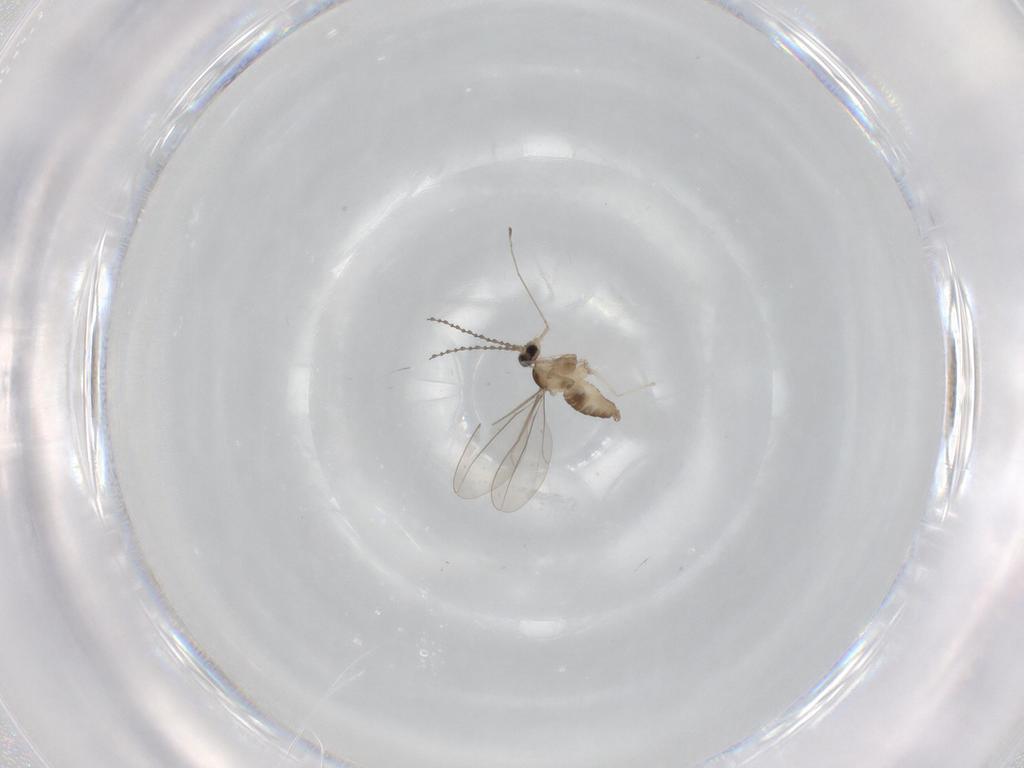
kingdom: Animalia
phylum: Arthropoda
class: Insecta
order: Diptera
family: Cecidomyiidae
